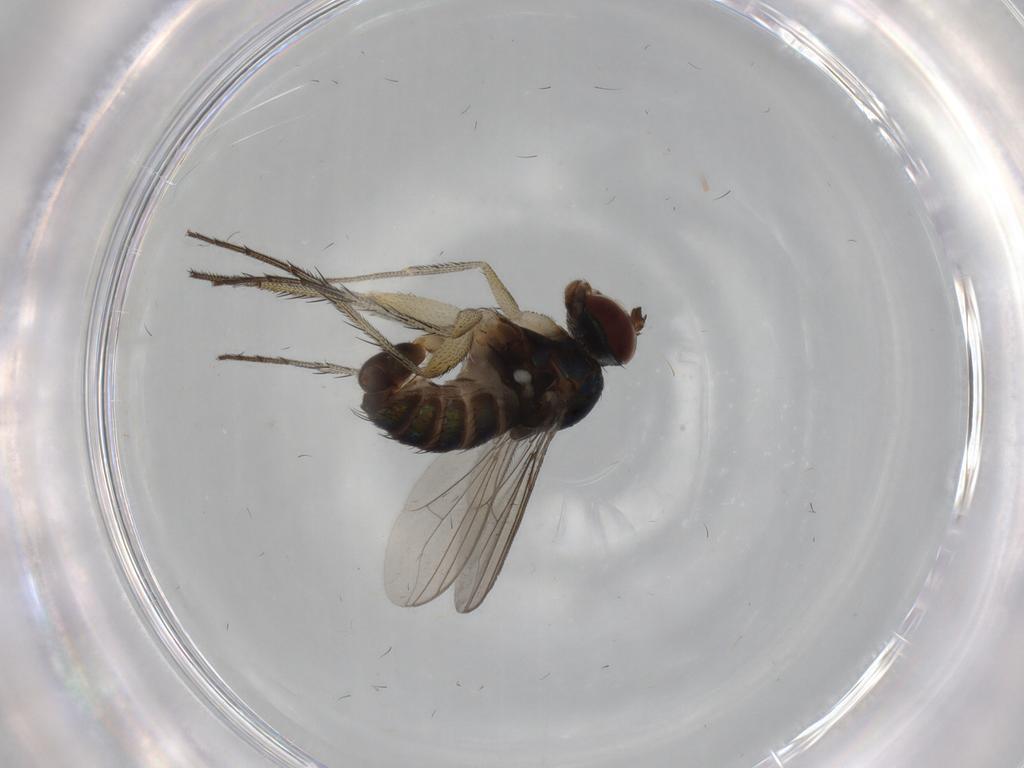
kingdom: Animalia
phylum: Arthropoda
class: Insecta
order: Diptera
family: Dolichopodidae
